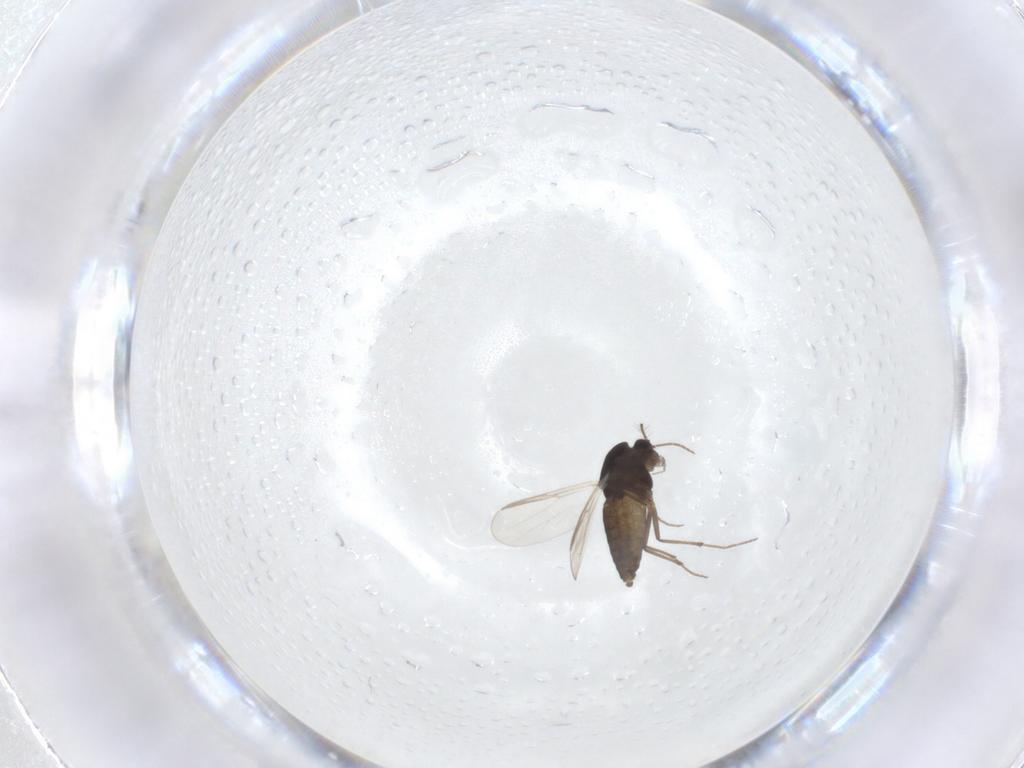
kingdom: Animalia
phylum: Arthropoda
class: Insecta
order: Diptera
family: Chironomidae
